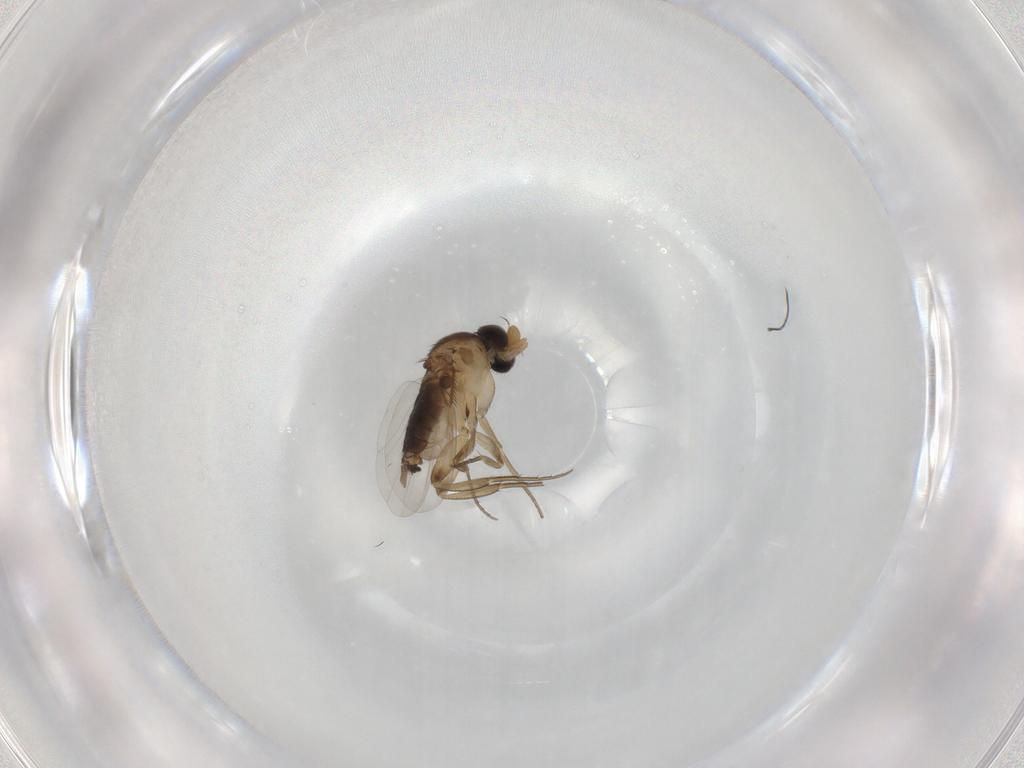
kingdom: Animalia
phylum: Arthropoda
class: Insecta
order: Diptera
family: Phoridae
